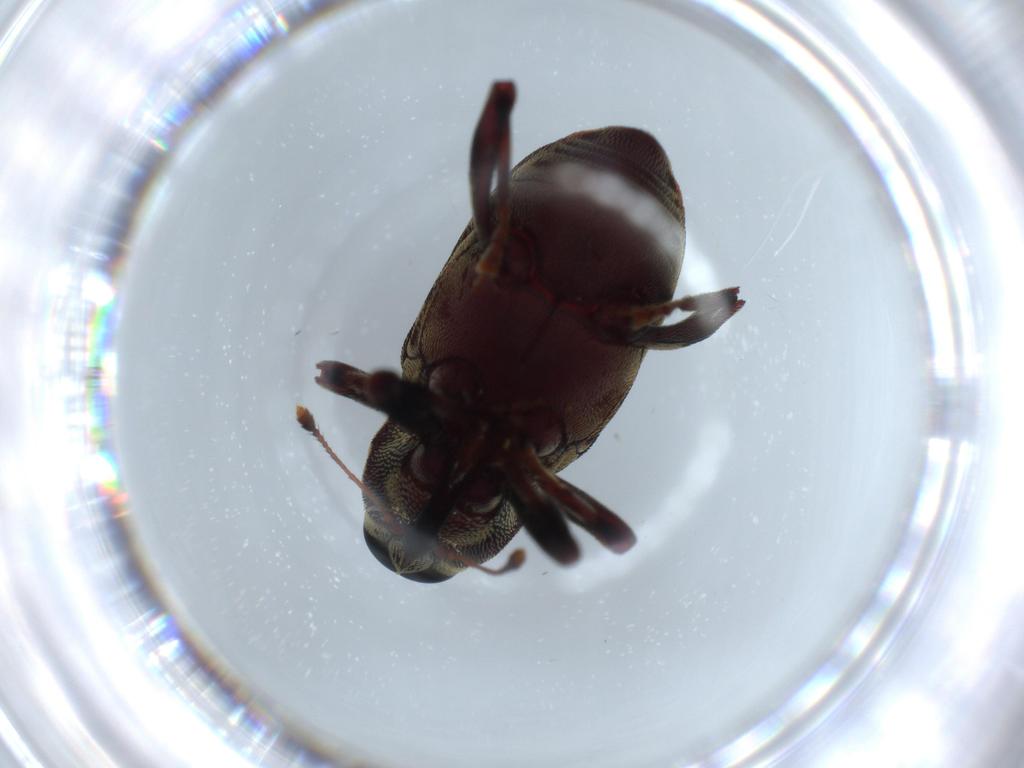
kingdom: Animalia
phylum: Arthropoda
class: Insecta
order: Coleoptera
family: Curculionidae
